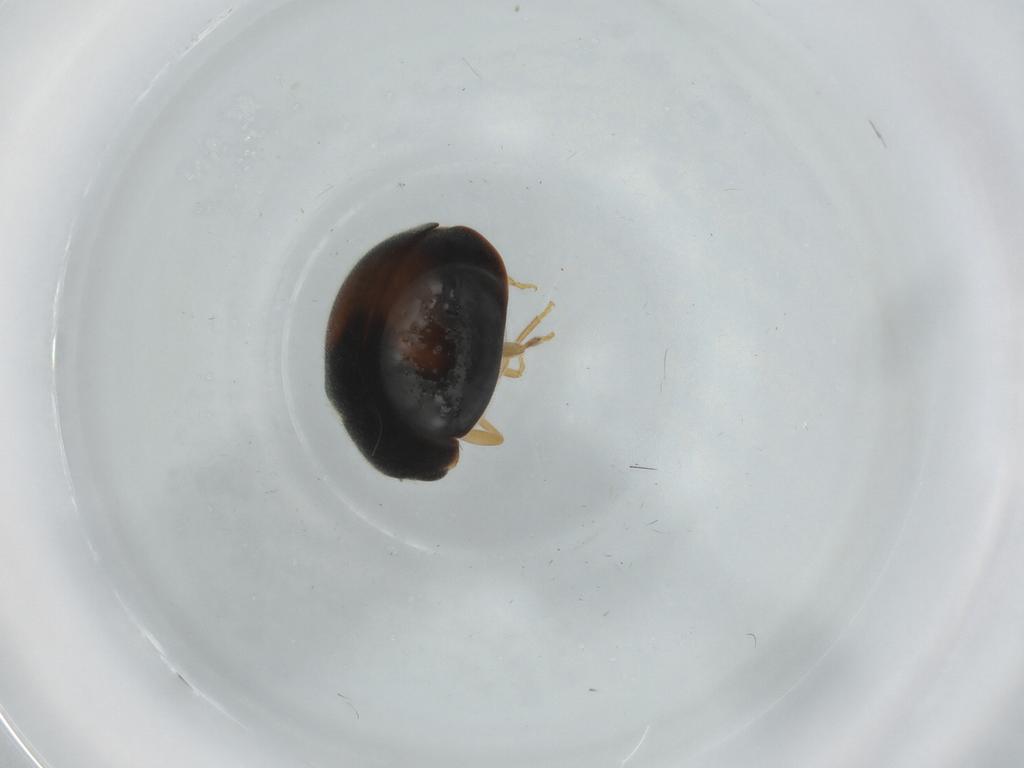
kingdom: Animalia
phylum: Arthropoda
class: Insecta
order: Coleoptera
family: Coccinellidae
